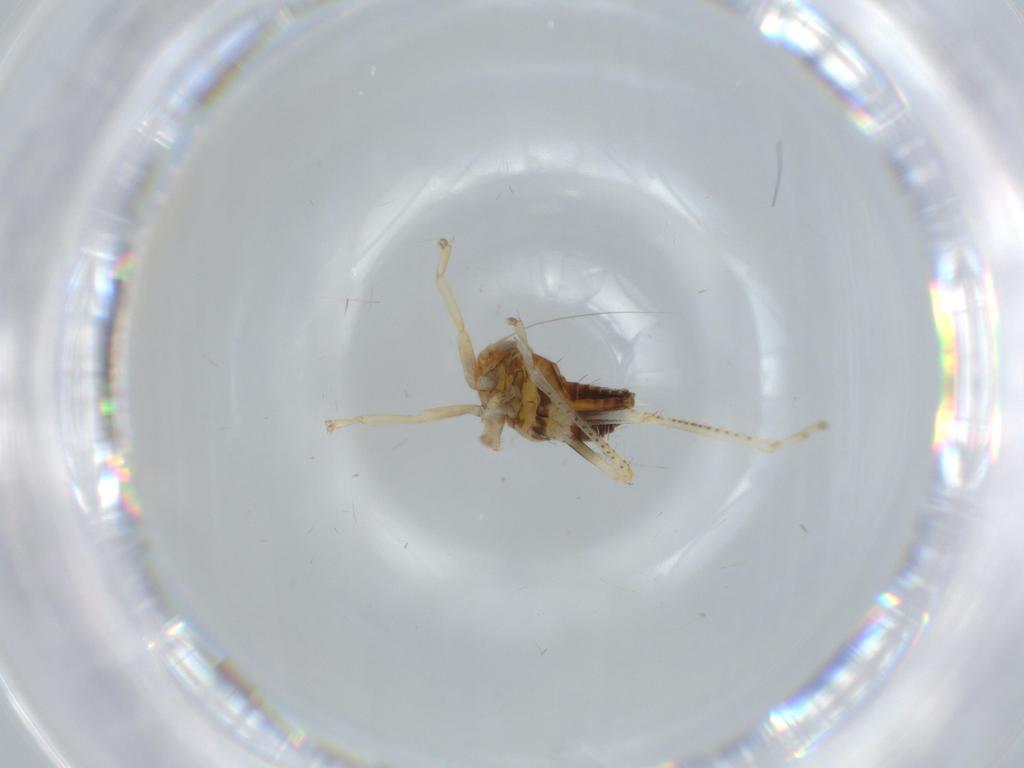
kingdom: Animalia
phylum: Arthropoda
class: Insecta
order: Hemiptera
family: Cicadellidae
